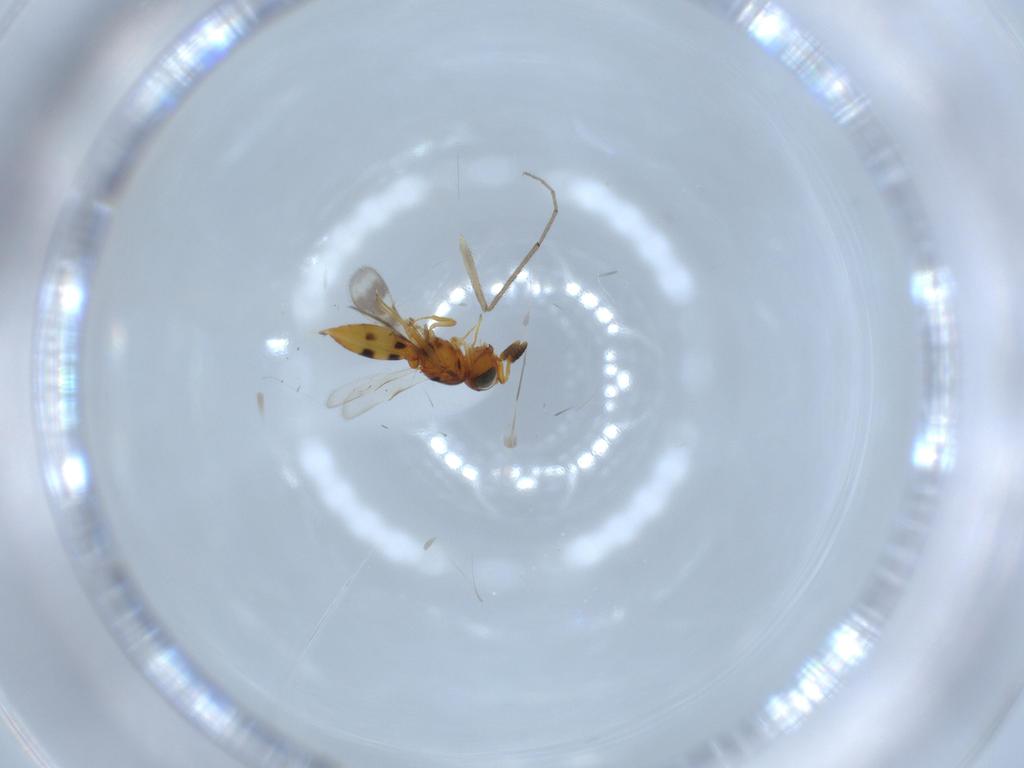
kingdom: Animalia
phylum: Arthropoda
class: Insecta
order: Hymenoptera
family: Scelionidae
